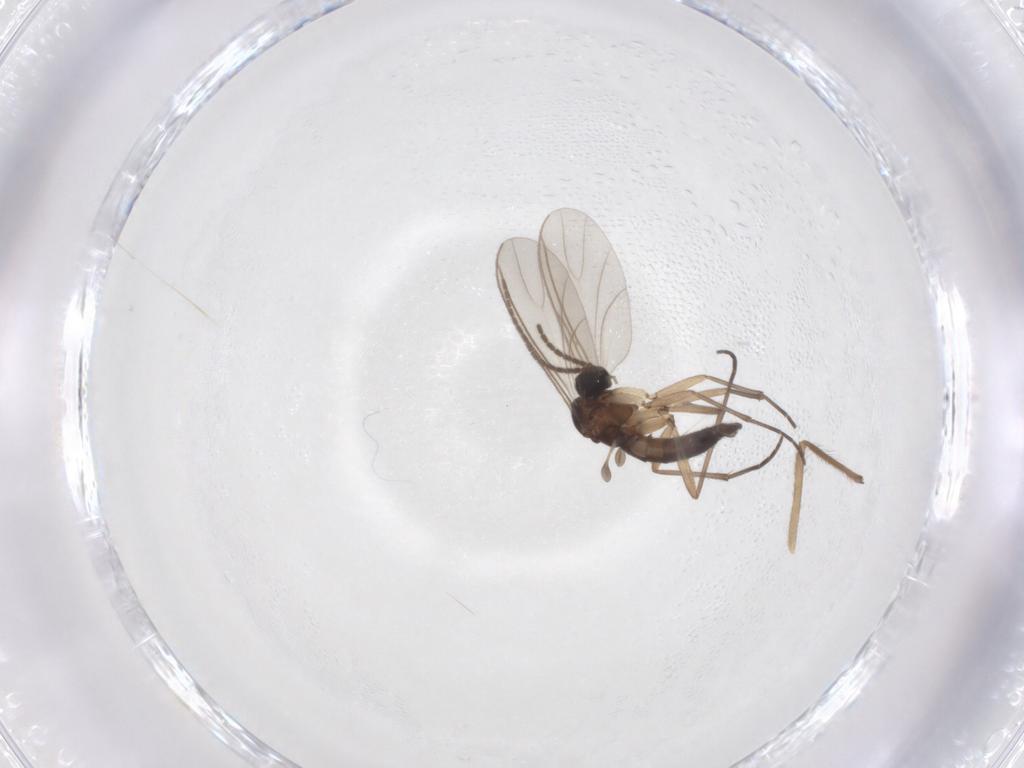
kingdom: Animalia
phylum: Arthropoda
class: Insecta
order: Diptera
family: Sciaridae
